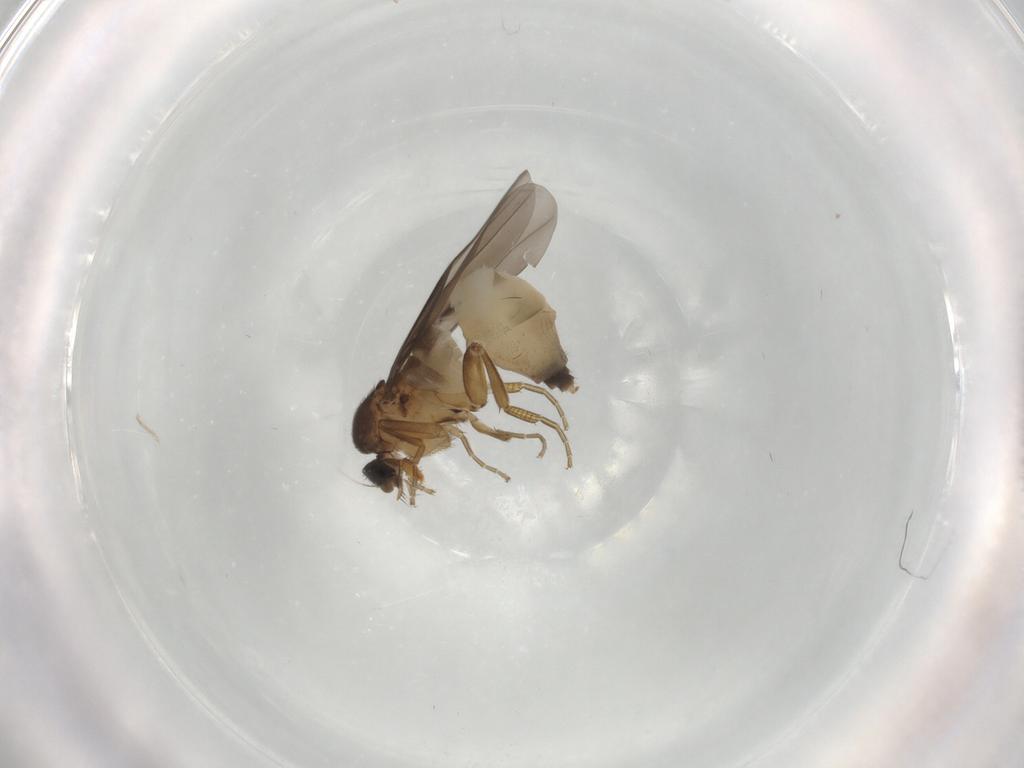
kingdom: Animalia
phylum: Arthropoda
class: Insecta
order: Diptera
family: Phoridae
